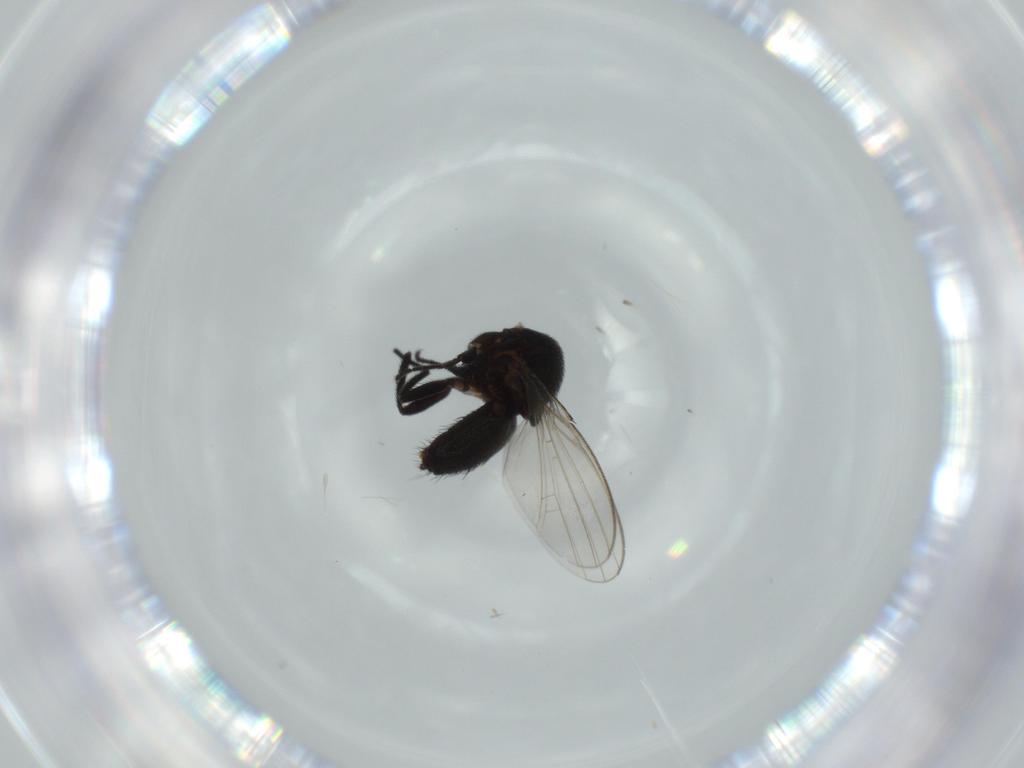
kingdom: Animalia
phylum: Arthropoda
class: Insecta
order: Diptera
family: Milichiidae
